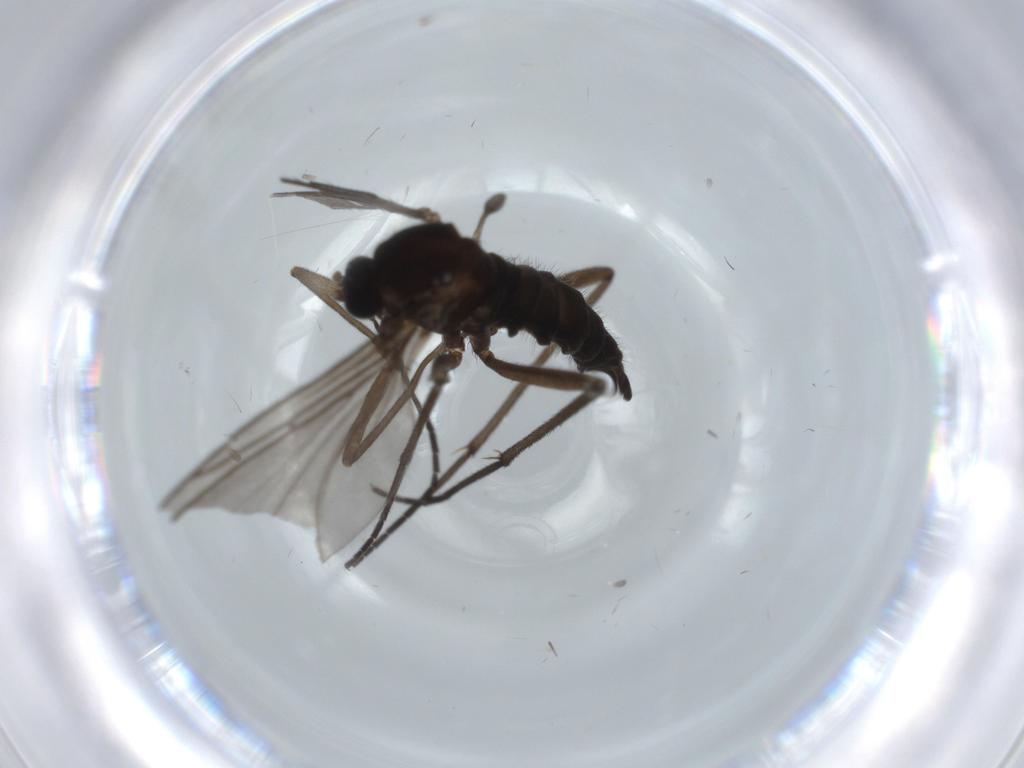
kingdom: Animalia
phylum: Arthropoda
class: Insecta
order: Diptera
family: Sciaridae
